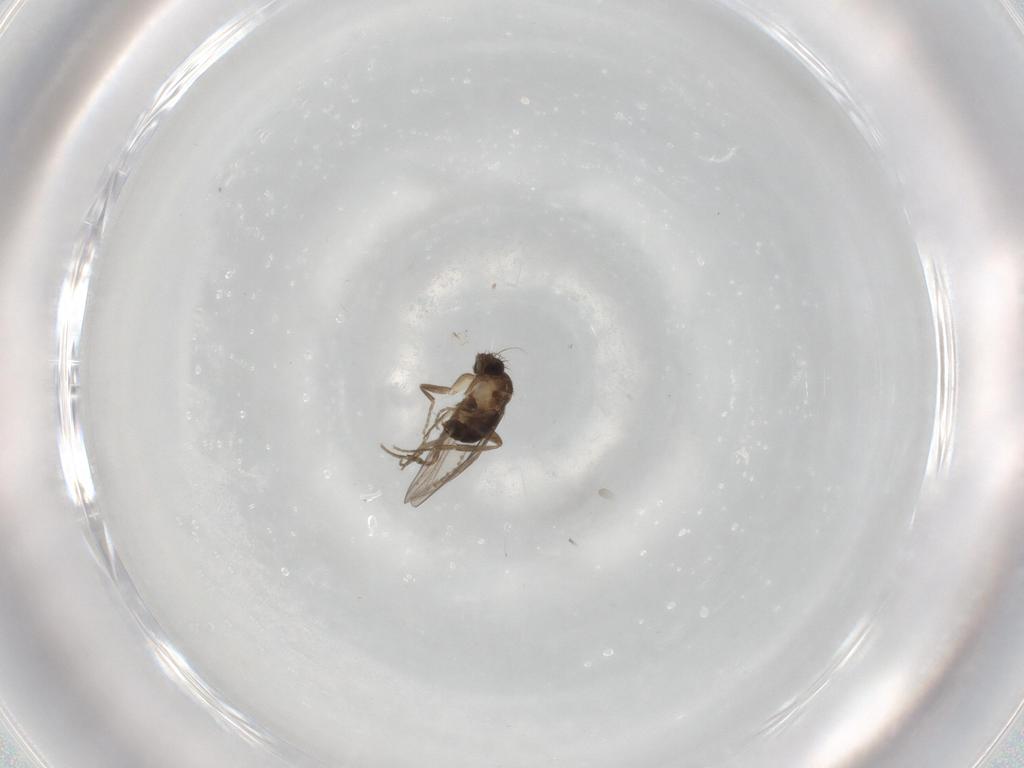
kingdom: Animalia
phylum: Arthropoda
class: Insecta
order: Diptera
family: Phoridae
